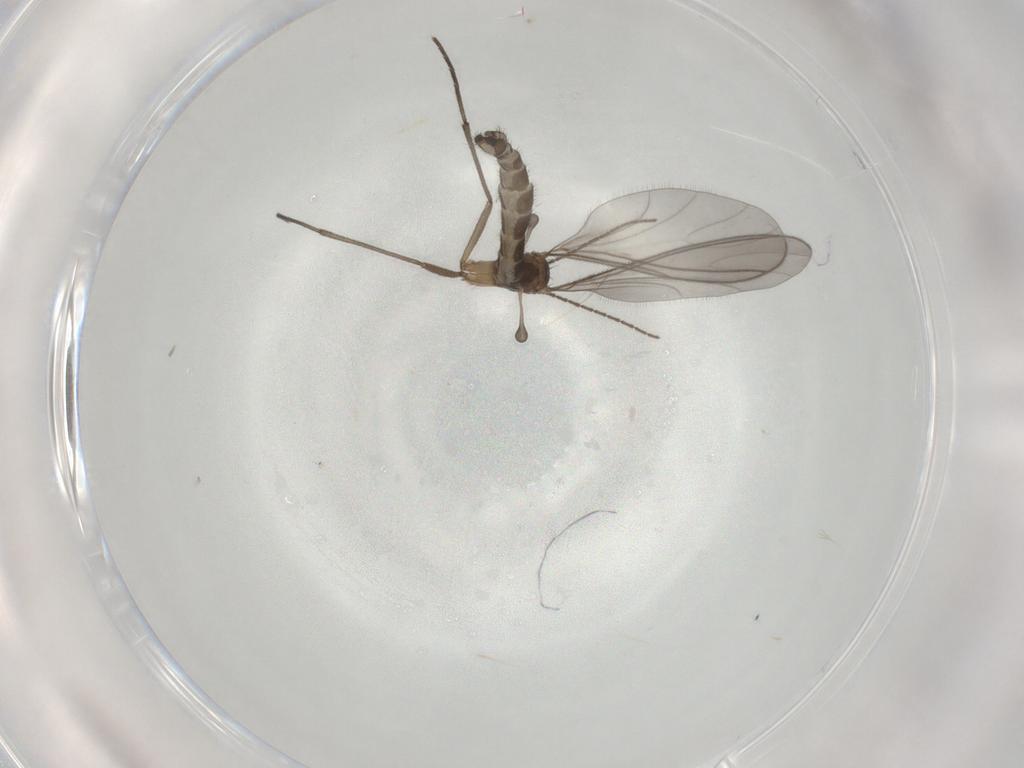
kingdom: Animalia
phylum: Arthropoda
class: Insecta
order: Diptera
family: Sciaridae
